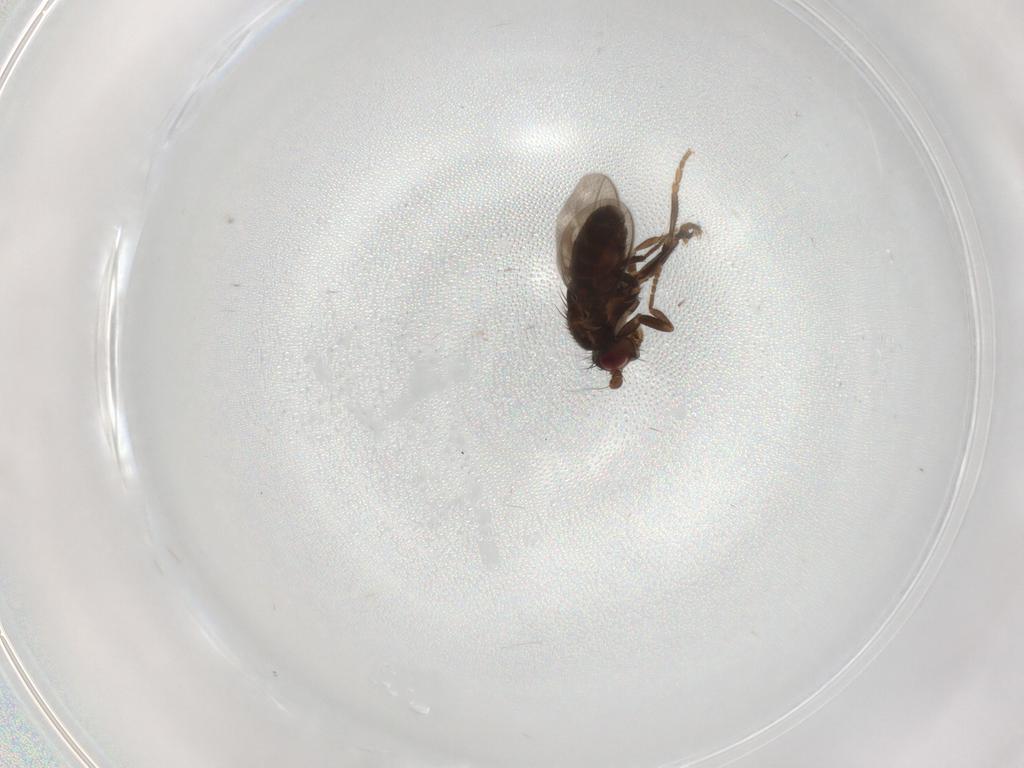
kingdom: Animalia
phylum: Arthropoda
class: Insecta
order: Diptera
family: Sphaeroceridae
